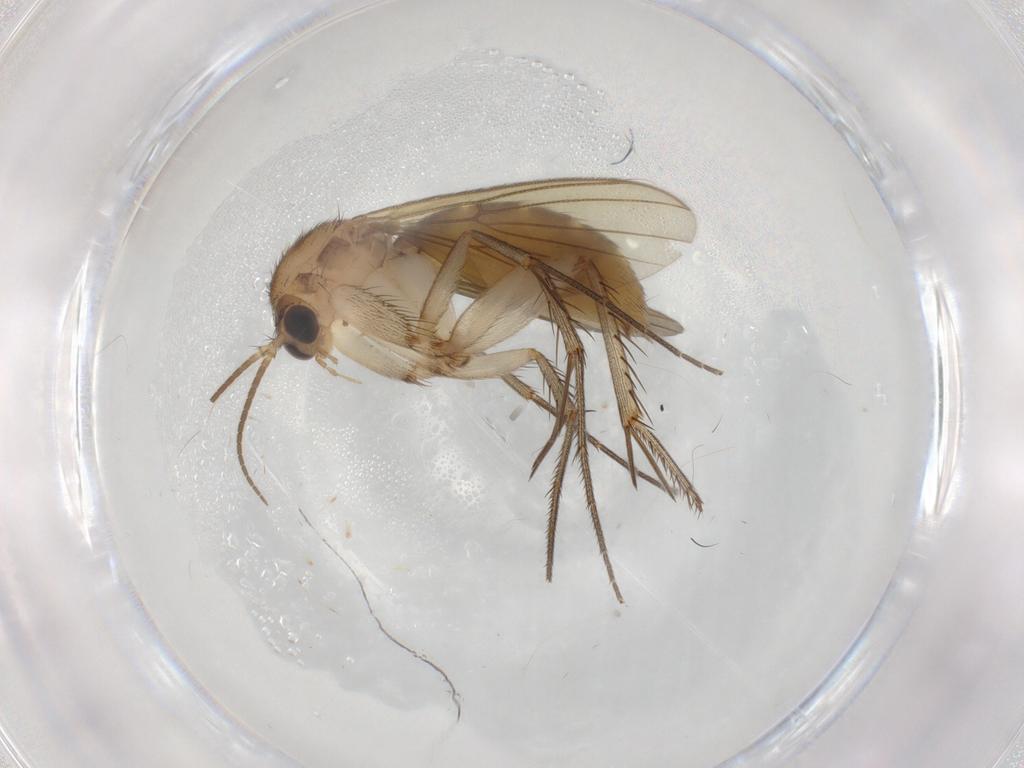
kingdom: Animalia
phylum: Arthropoda
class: Insecta
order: Diptera
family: Mycetophilidae
